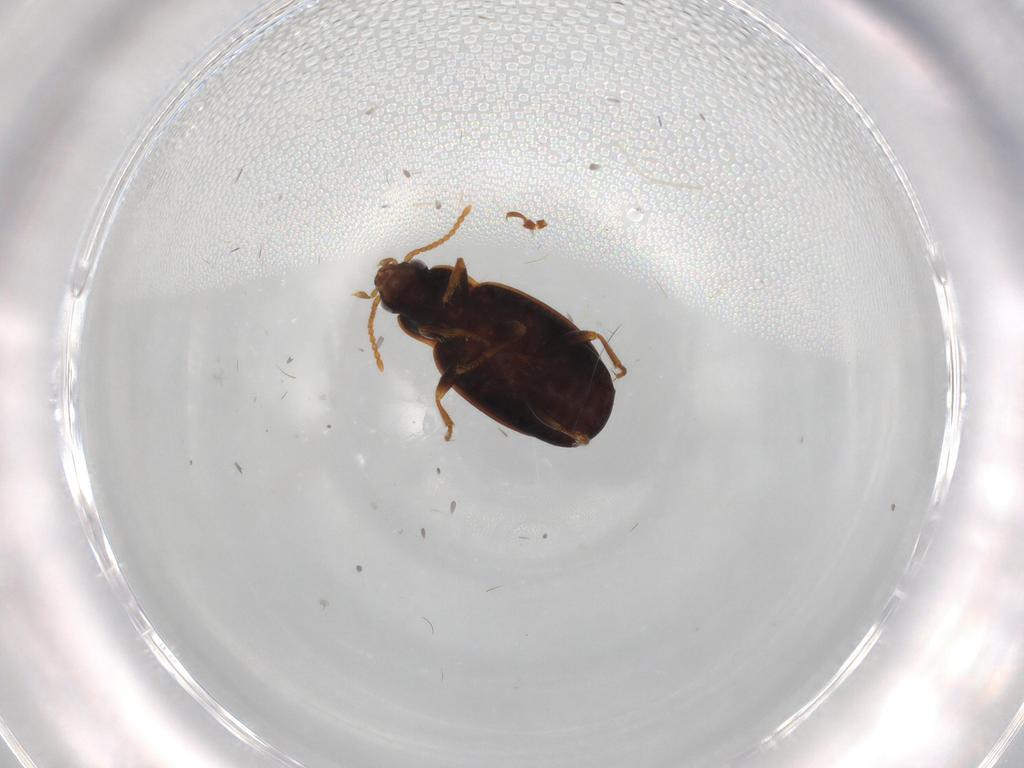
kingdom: Animalia
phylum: Arthropoda
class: Insecta
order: Coleoptera
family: Carabidae
